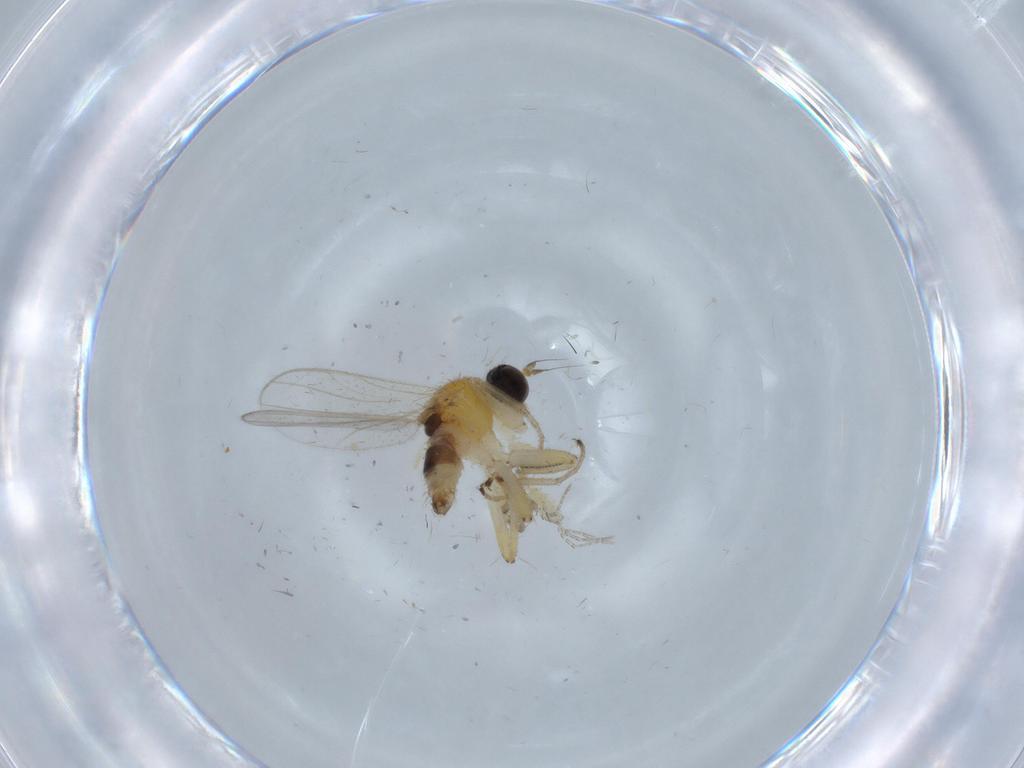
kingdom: Animalia
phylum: Arthropoda
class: Insecta
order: Diptera
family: Hybotidae
